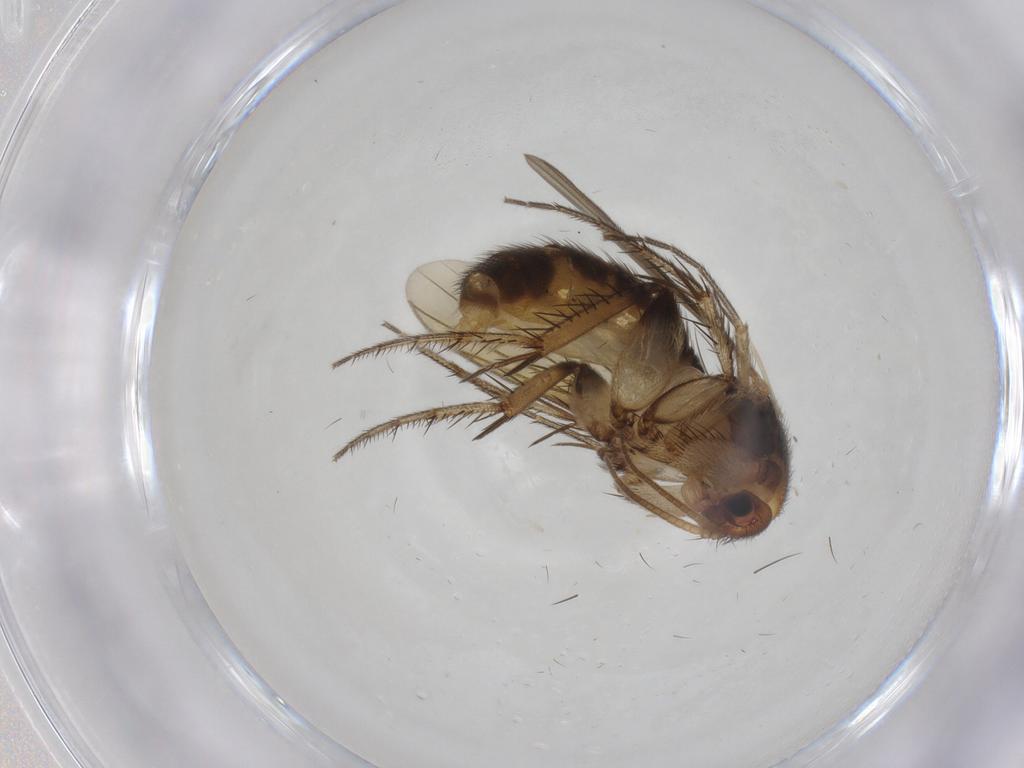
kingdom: Animalia
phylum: Arthropoda
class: Insecta
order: Diptera
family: Mycetophilidae
